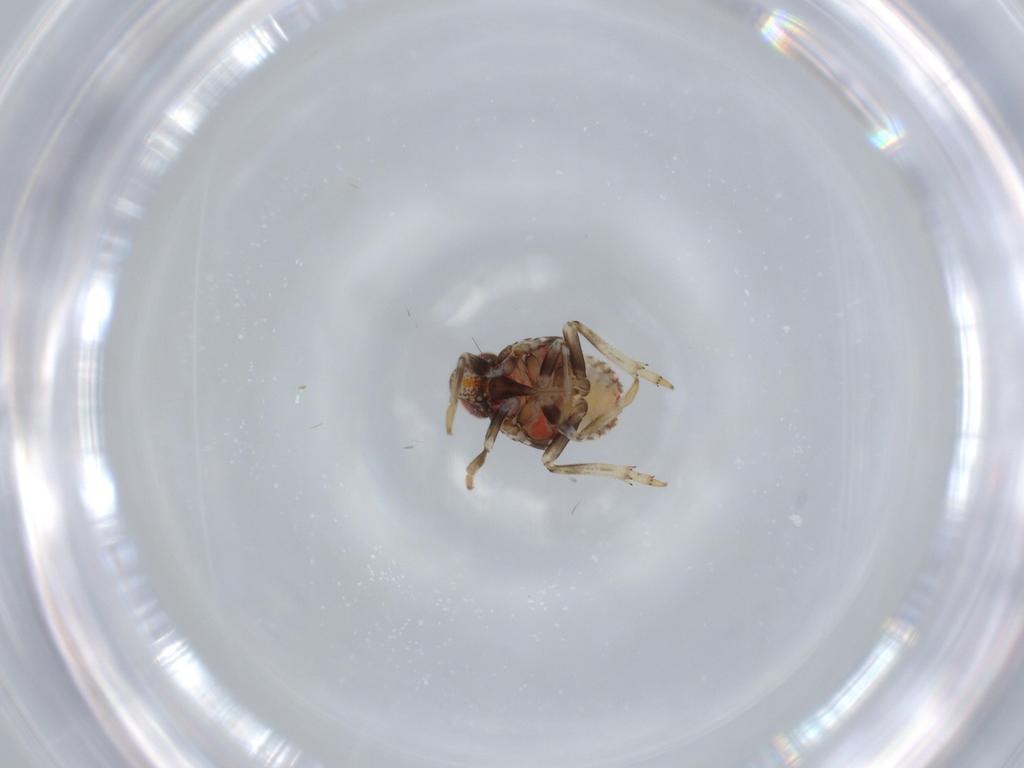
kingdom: Animalia
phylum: Arthropoda
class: Insecta
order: Hemiptera
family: Issidae
